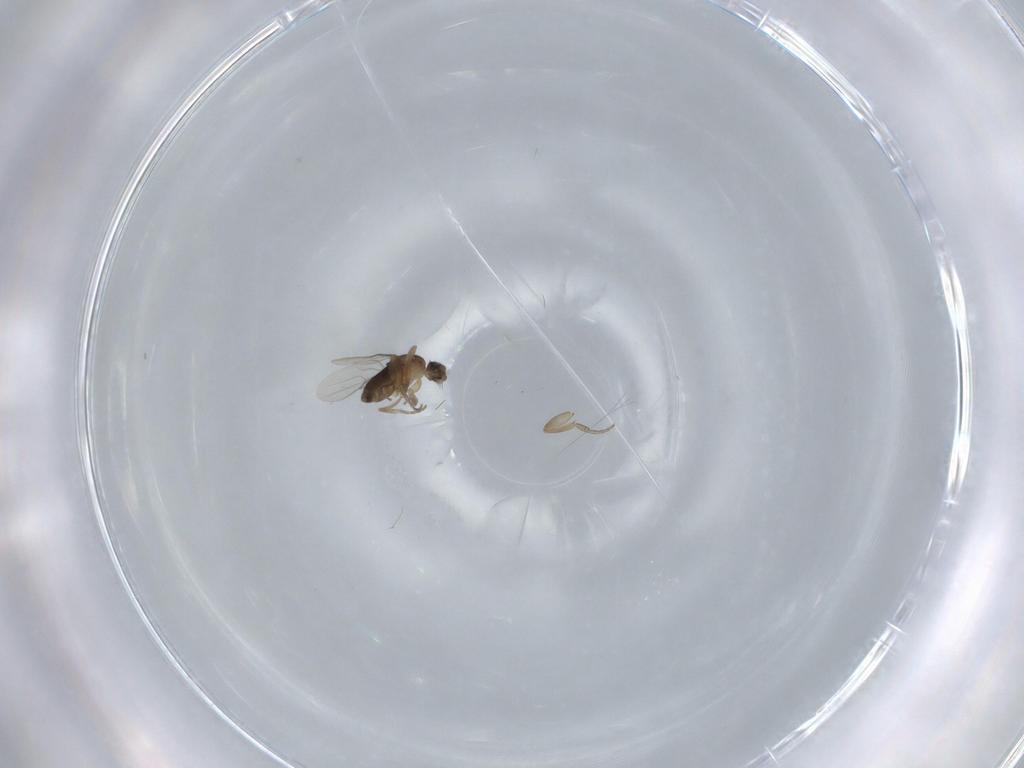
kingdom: Animalia
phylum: Arthropoda
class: Insecta
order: Diptera
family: Phoridae
